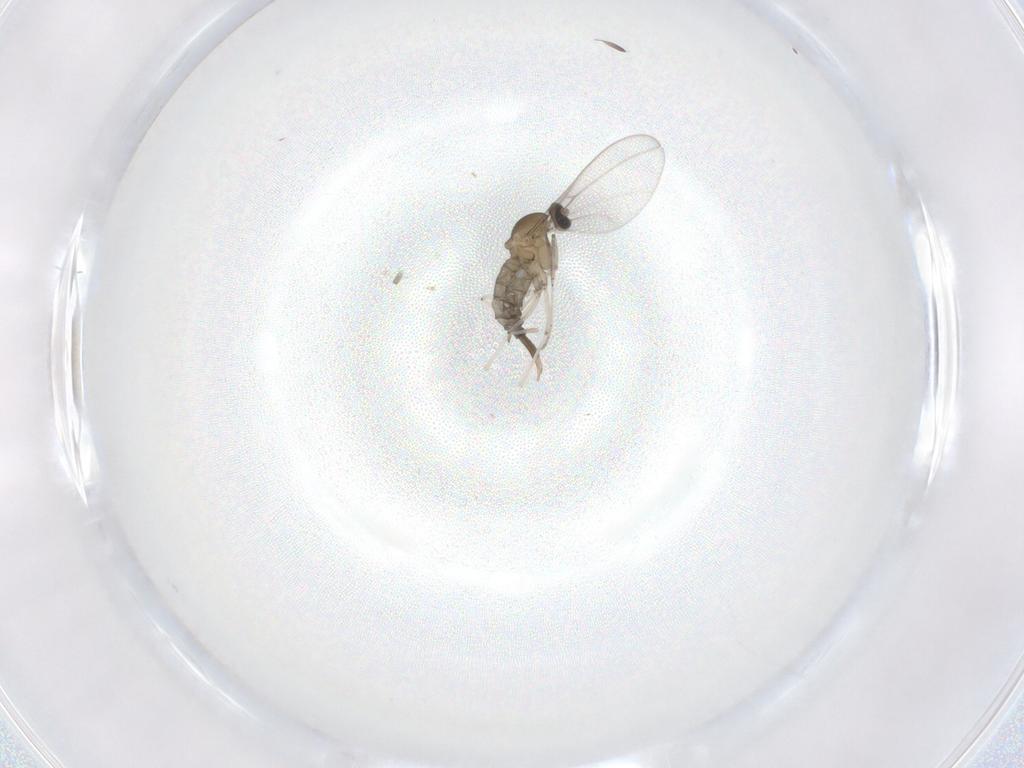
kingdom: Animalia
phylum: Arthropoda
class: Insecta
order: Diptera
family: Cecidomyiidae
